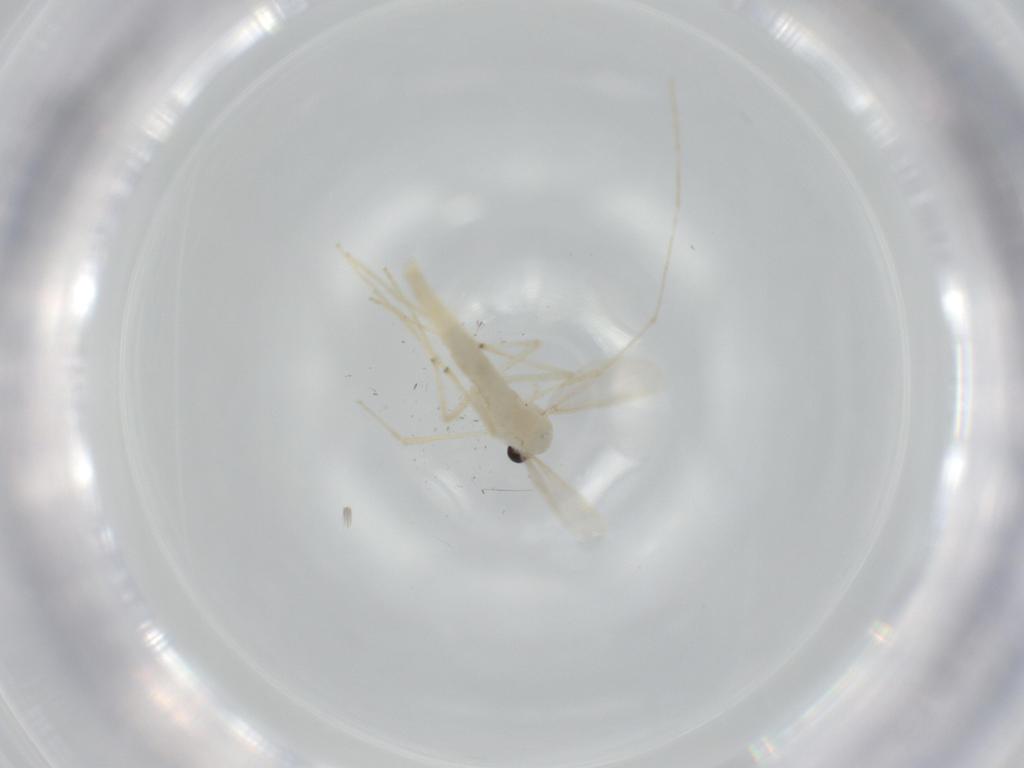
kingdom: Animalia
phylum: Arthropoda
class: Insecta
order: Diptera
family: Chironomidae
